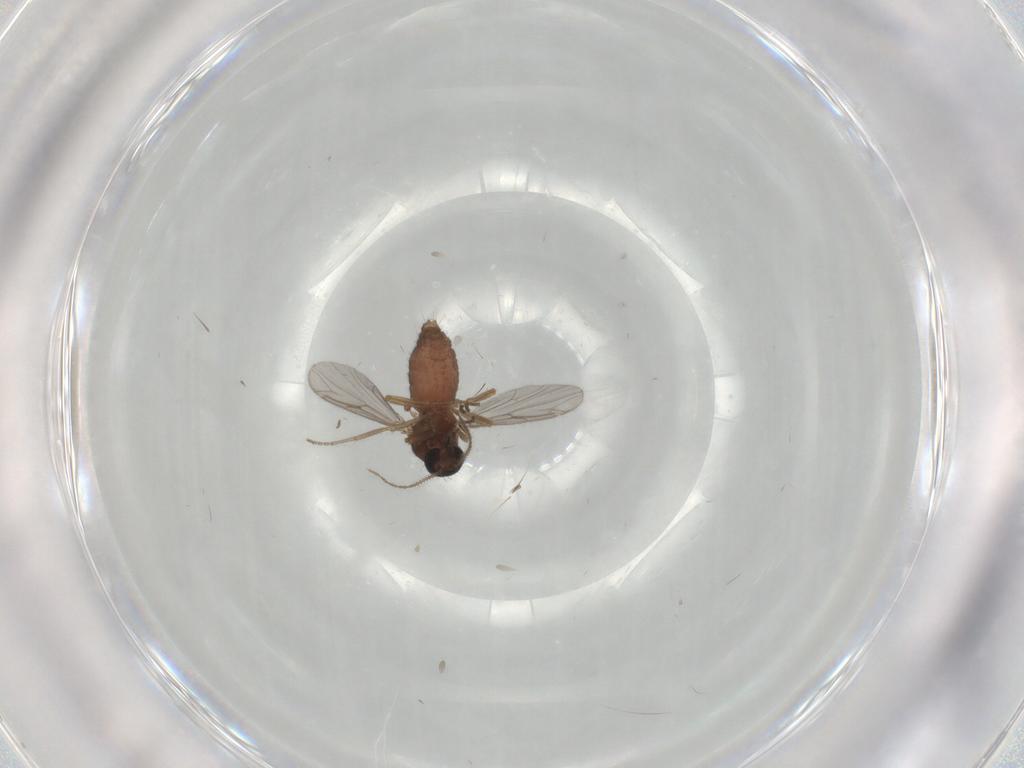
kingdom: Animalia
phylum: Arthropoda
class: Insecta
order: Diptera
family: Ceratopogonidae
